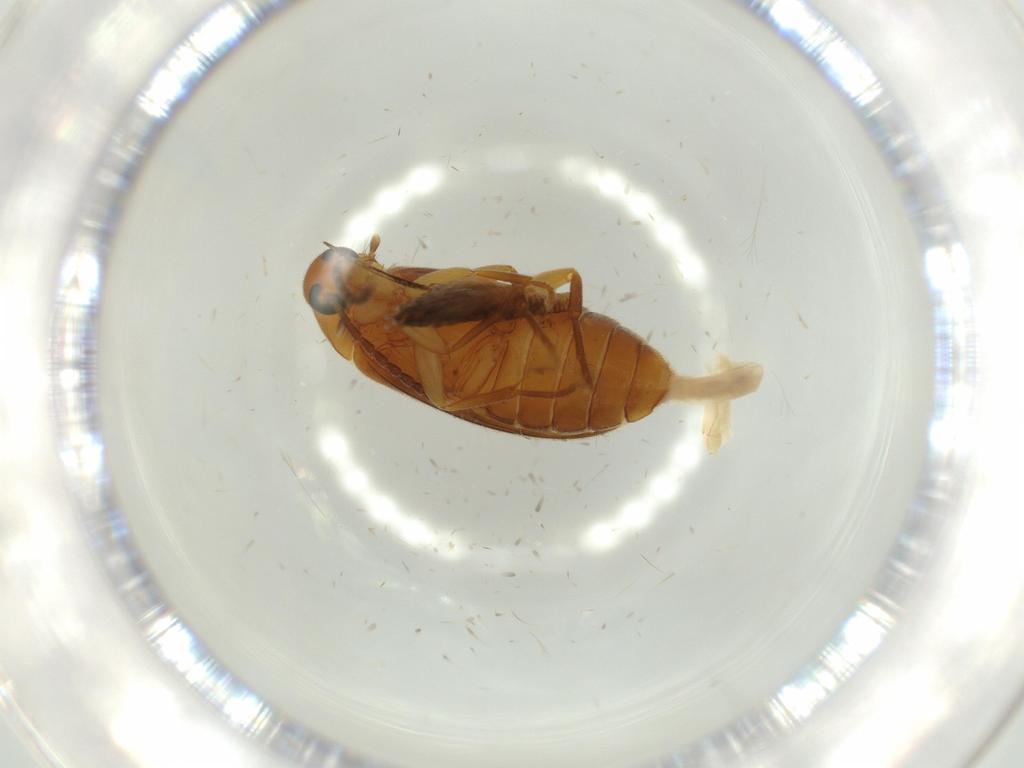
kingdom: Animalia
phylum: Arthropoda
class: Insecta
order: Coleoptera
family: Scraptiidae
